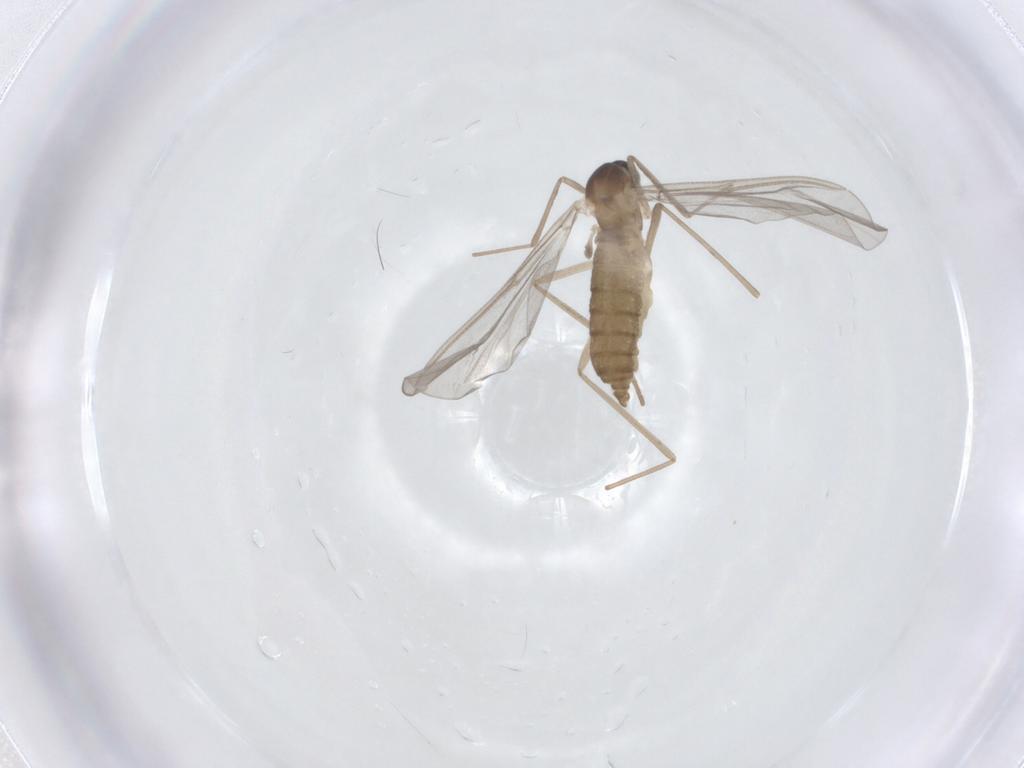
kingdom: Animalia
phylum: Arthropoda
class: Insecta
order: Diptera
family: Cecidomyiidae
